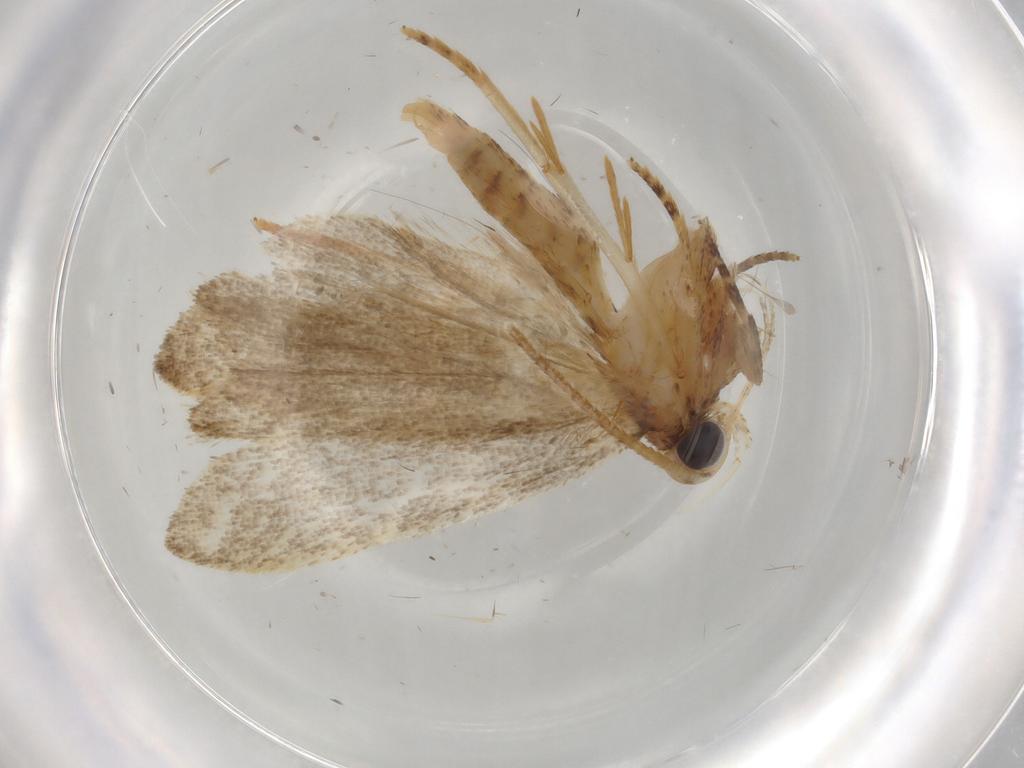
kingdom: Animalia
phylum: Arthropoda
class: Insecta
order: Lepidoptera
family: Autostichidae
